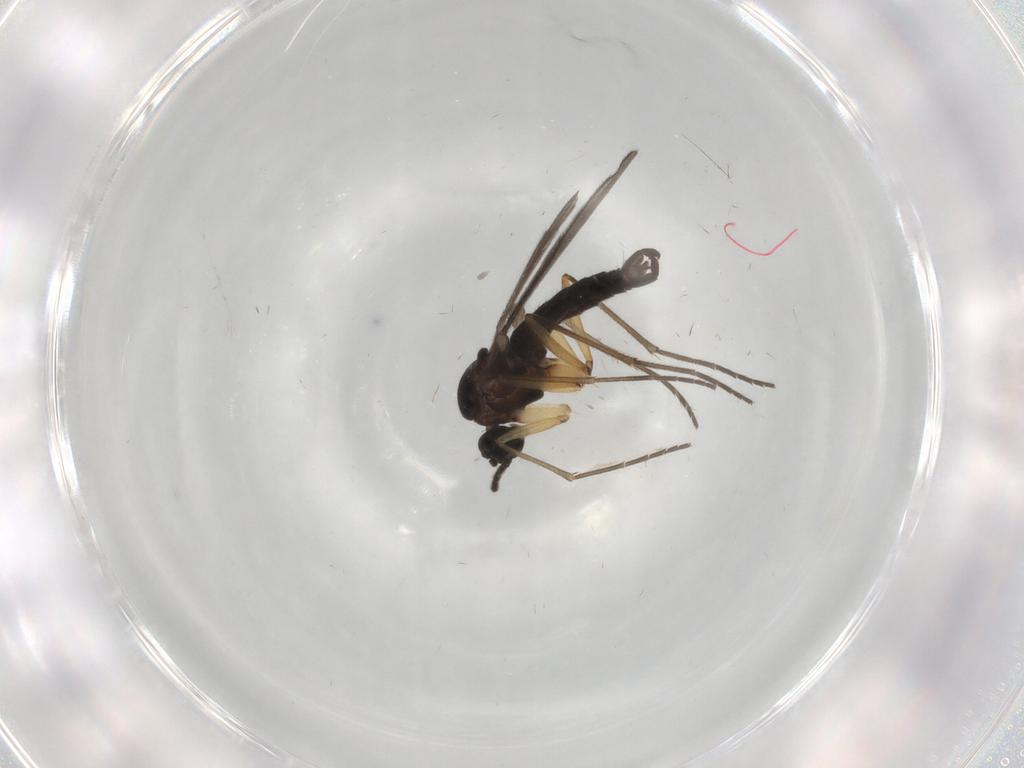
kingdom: Animalia
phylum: Arthropoda
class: Insecta
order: Diptera
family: Sciaridae
